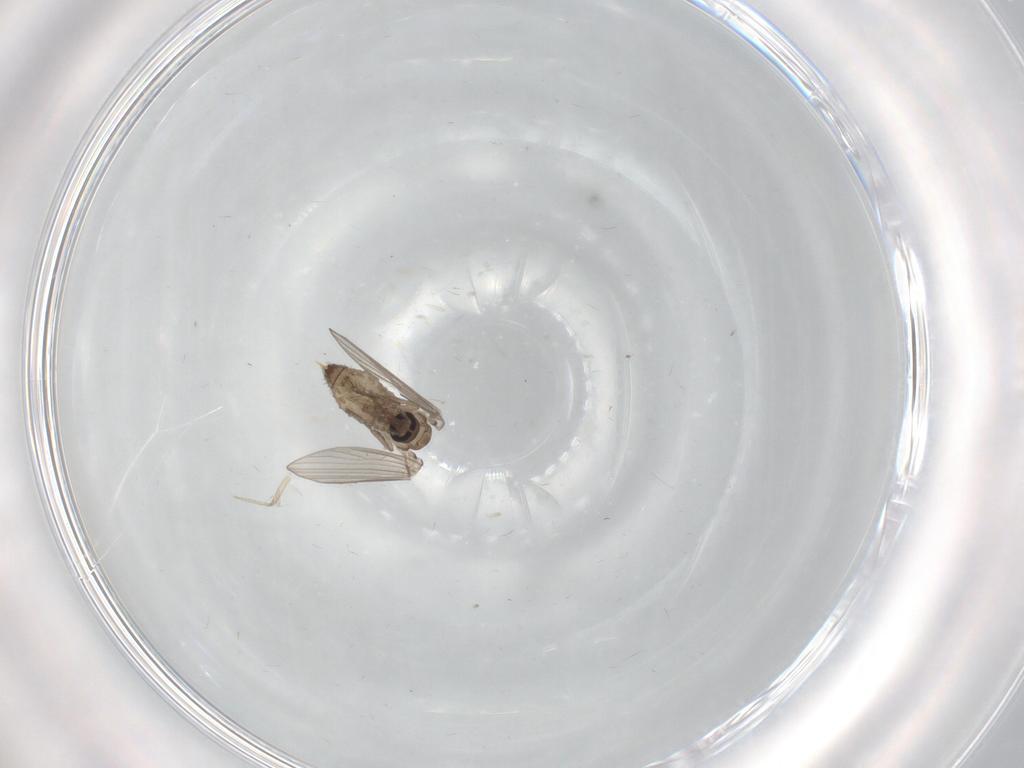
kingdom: Animalia
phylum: Arthropoda
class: Insecta
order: Diptera
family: Psychodidae
